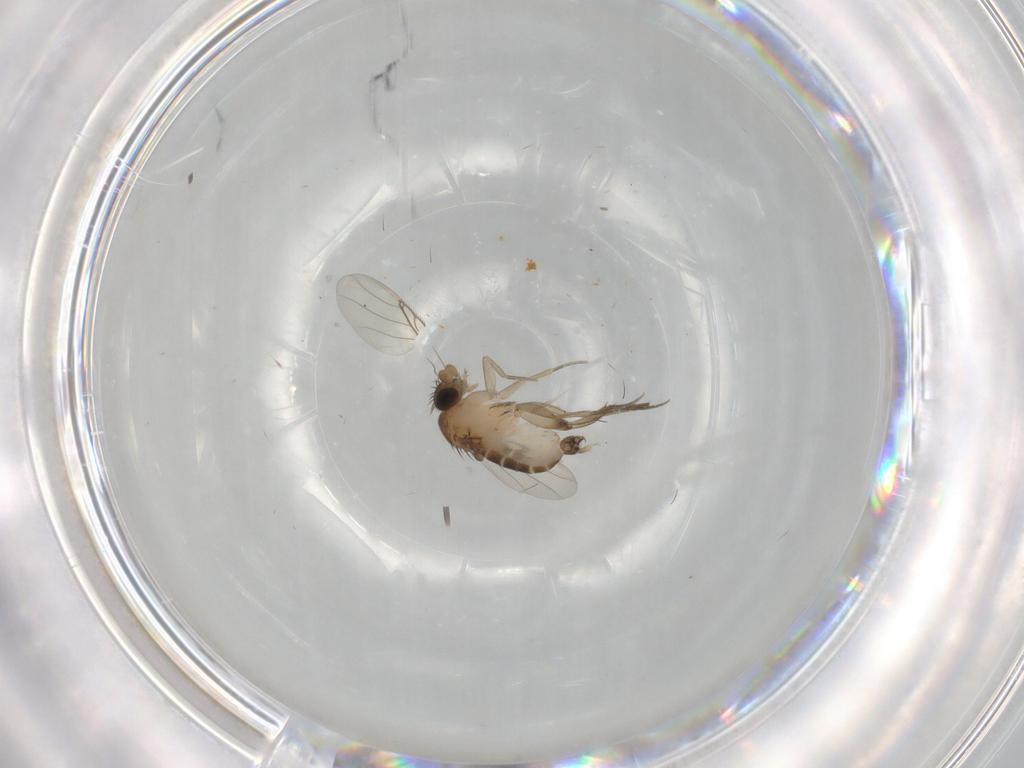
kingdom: Animalia
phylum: Arthropoda
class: Insecta
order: Diptera
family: Phoridae
